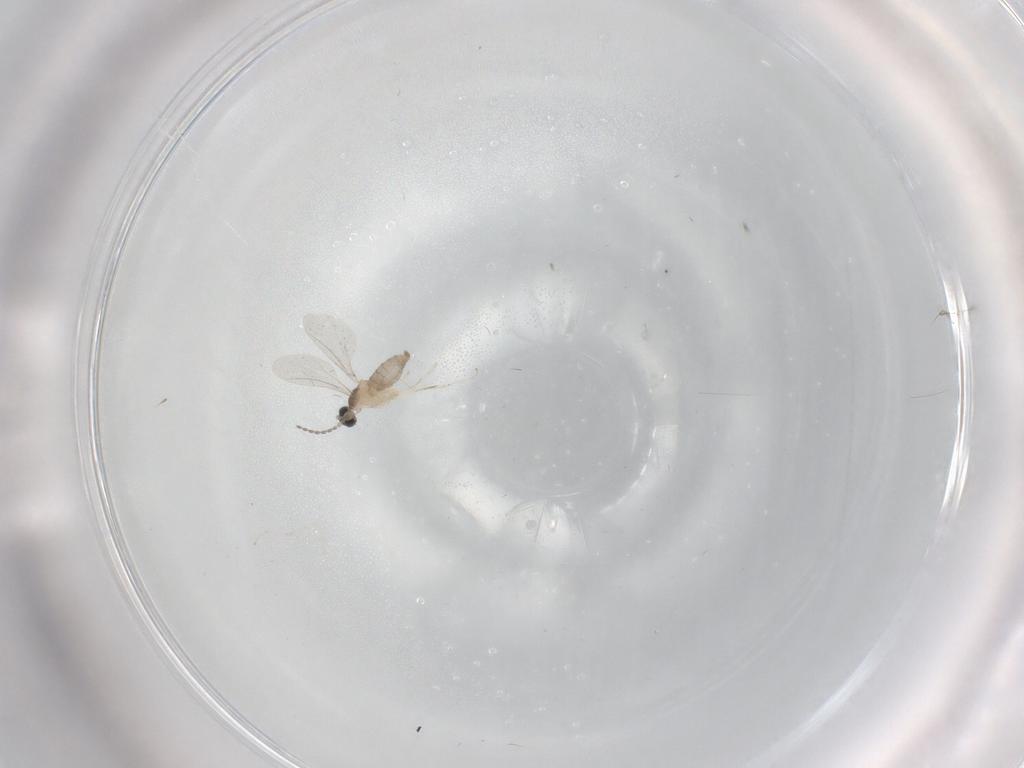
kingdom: Animalia
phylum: Arthropoda
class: Insecta
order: Diptera
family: Cecidomyiidae
